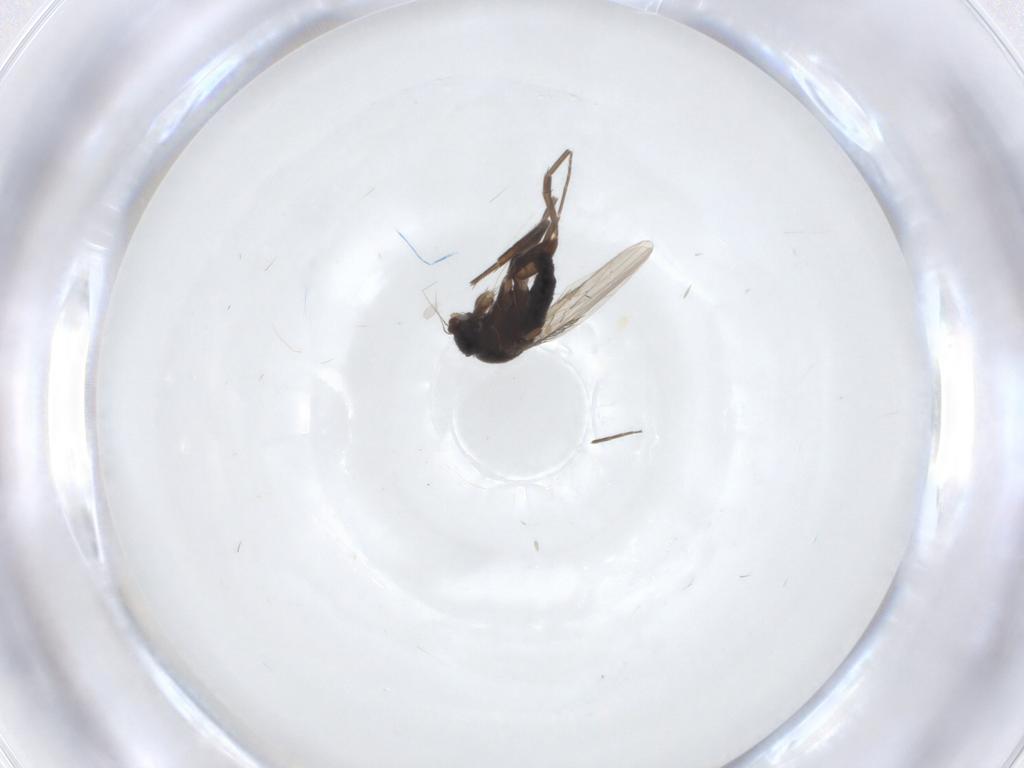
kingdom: Animalia
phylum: Arthropoda
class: Insecta
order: Diptera
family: Phoridae
